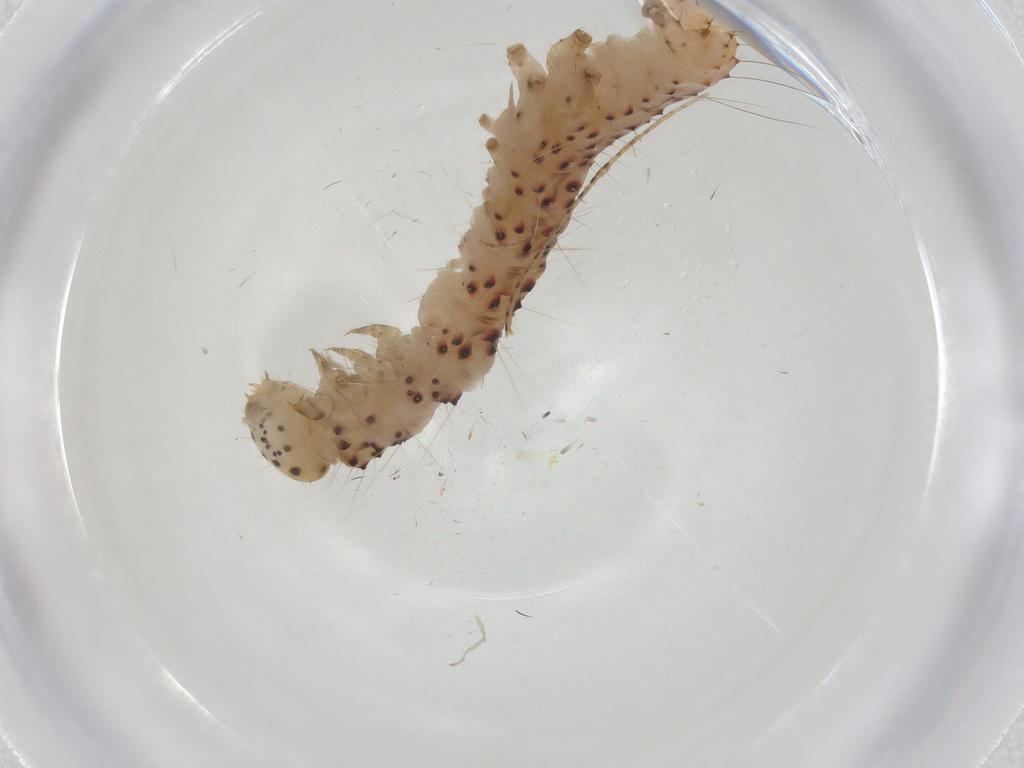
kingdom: Animalia
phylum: Arthropoda
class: Insecta
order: Lepidoptera
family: Erebidae
